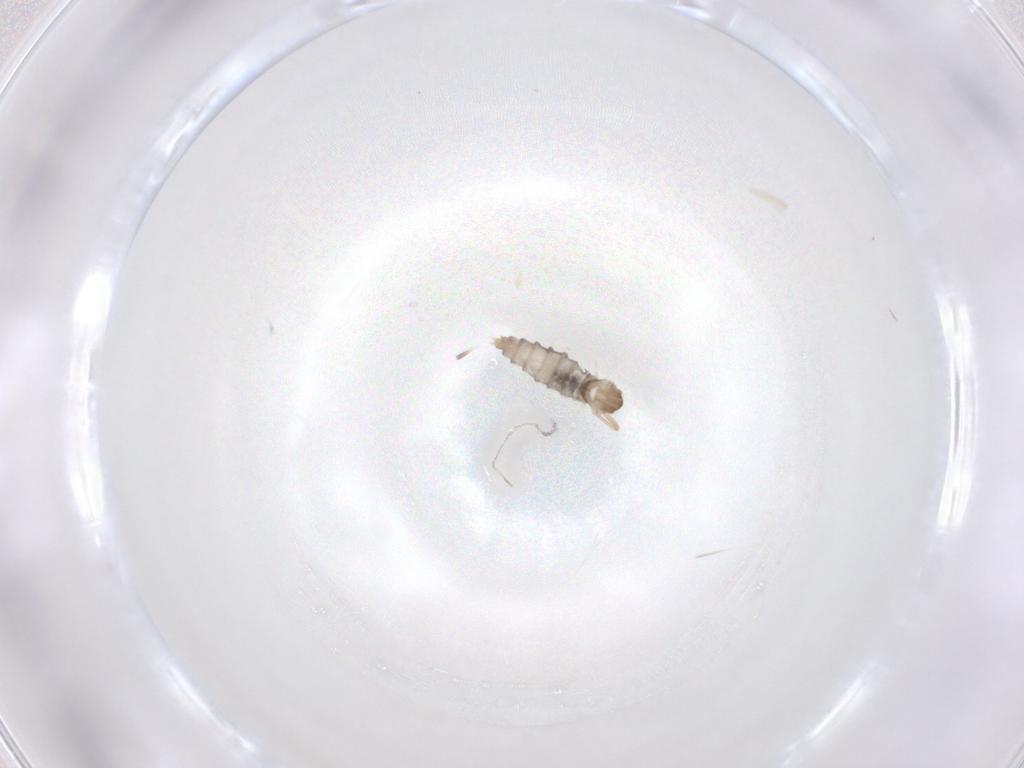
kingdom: Animalia
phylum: Arthropoda
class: Insecta
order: Diptera
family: Cecidomyiidae
